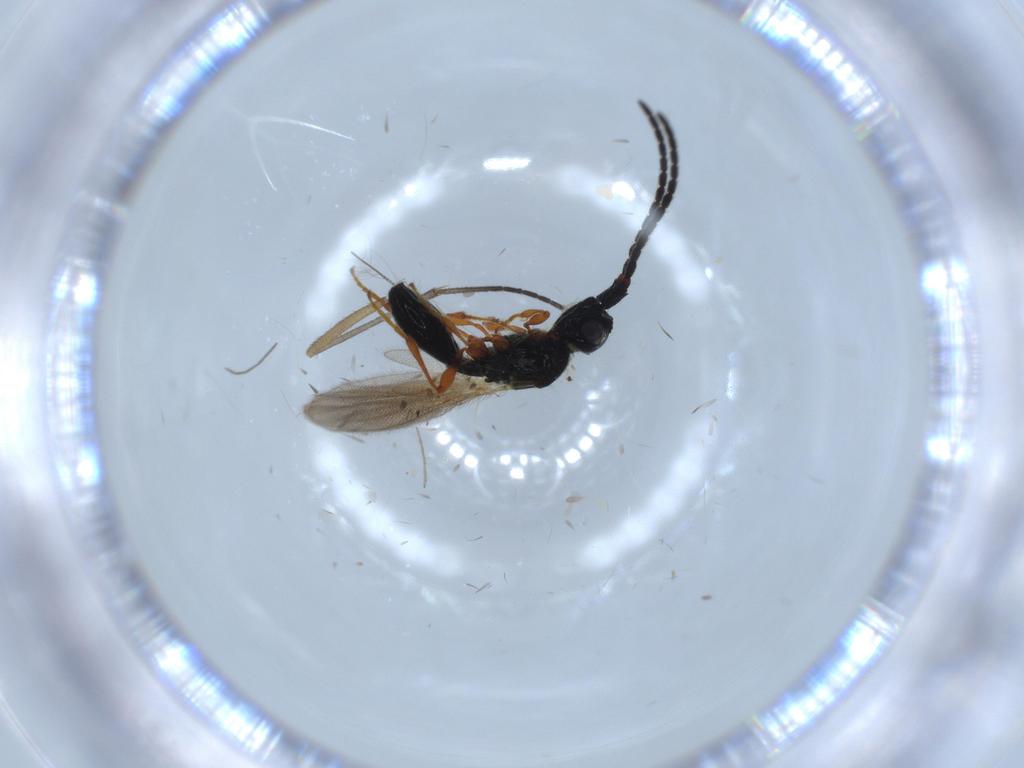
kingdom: Animalia
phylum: Arthropoda
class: Insecta
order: Hymenoptera
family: Diapriidae
